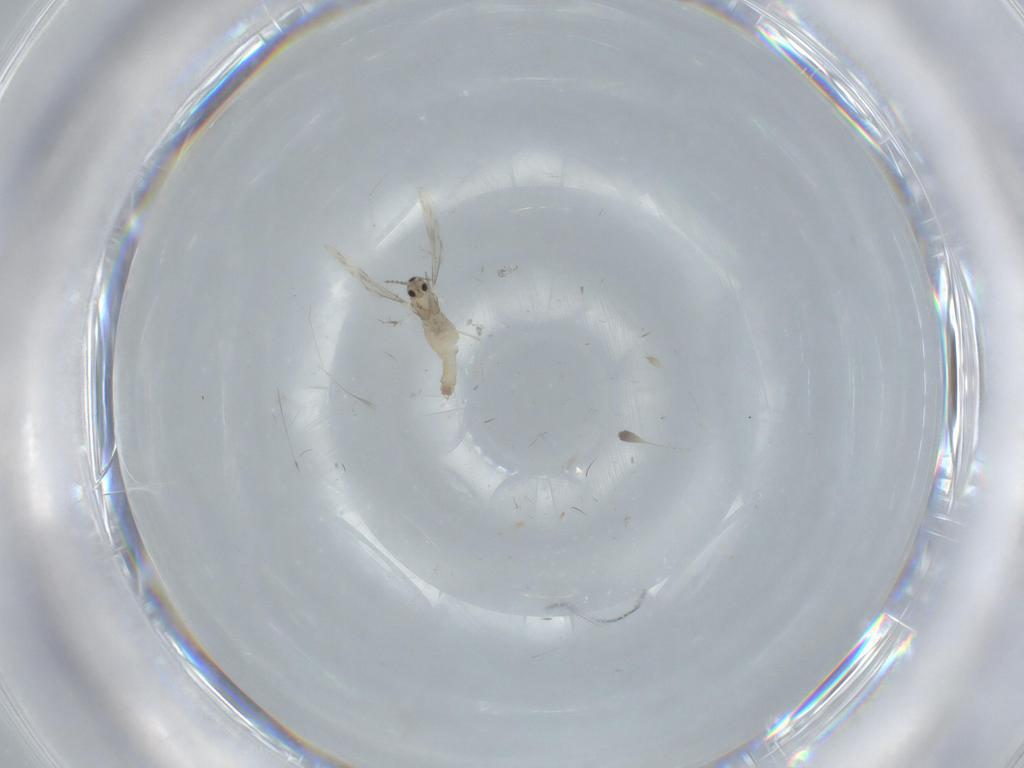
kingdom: Animalia
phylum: Arthropoda
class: Insecta
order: Diptera
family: Cecidomyiidae
